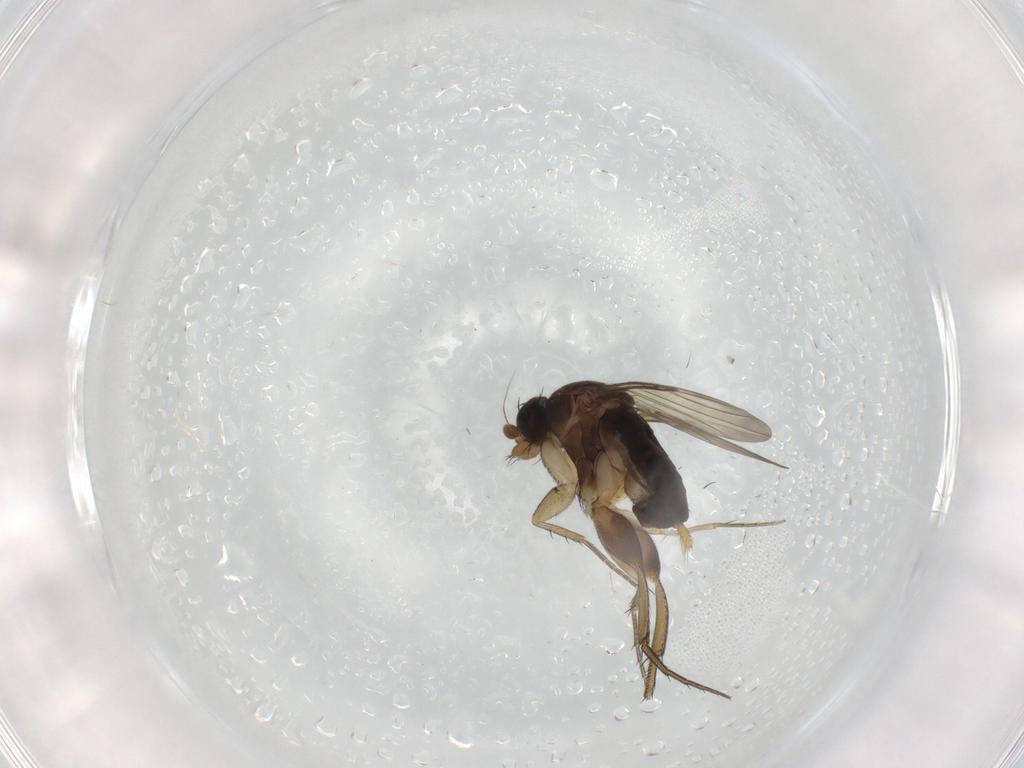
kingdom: Animalia
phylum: Arthropoda
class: Insecta
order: Diptera
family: Phoridae
